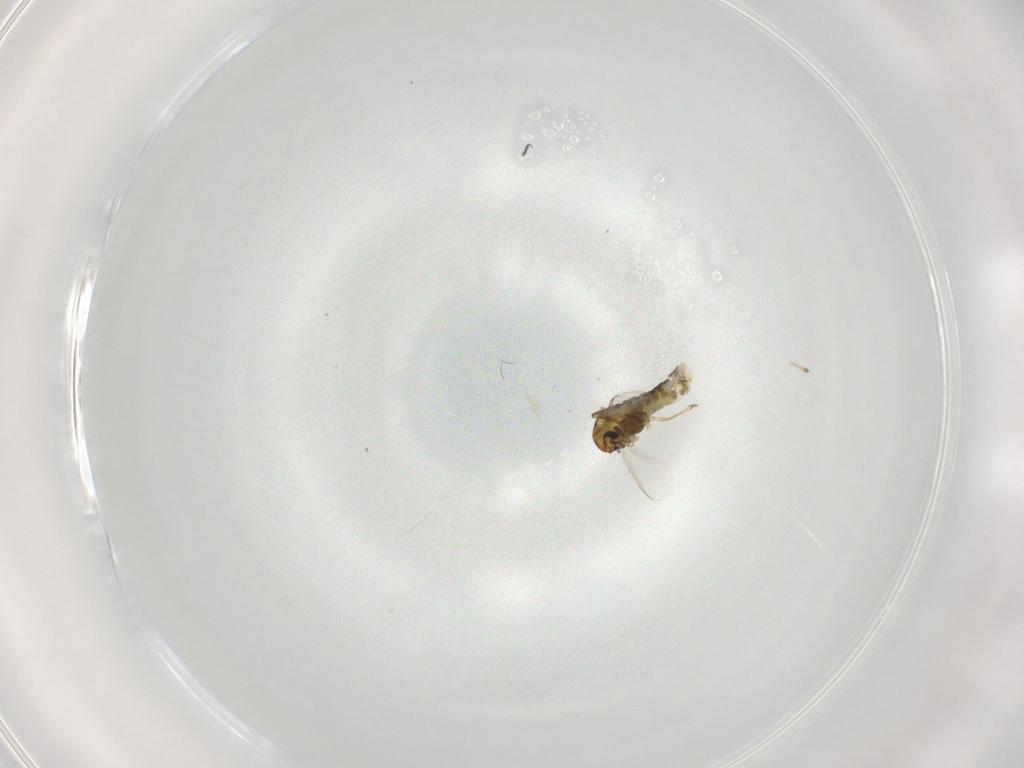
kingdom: Animalia
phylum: Arthropoda
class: Insecta
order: Diptera
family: Chironomidae
